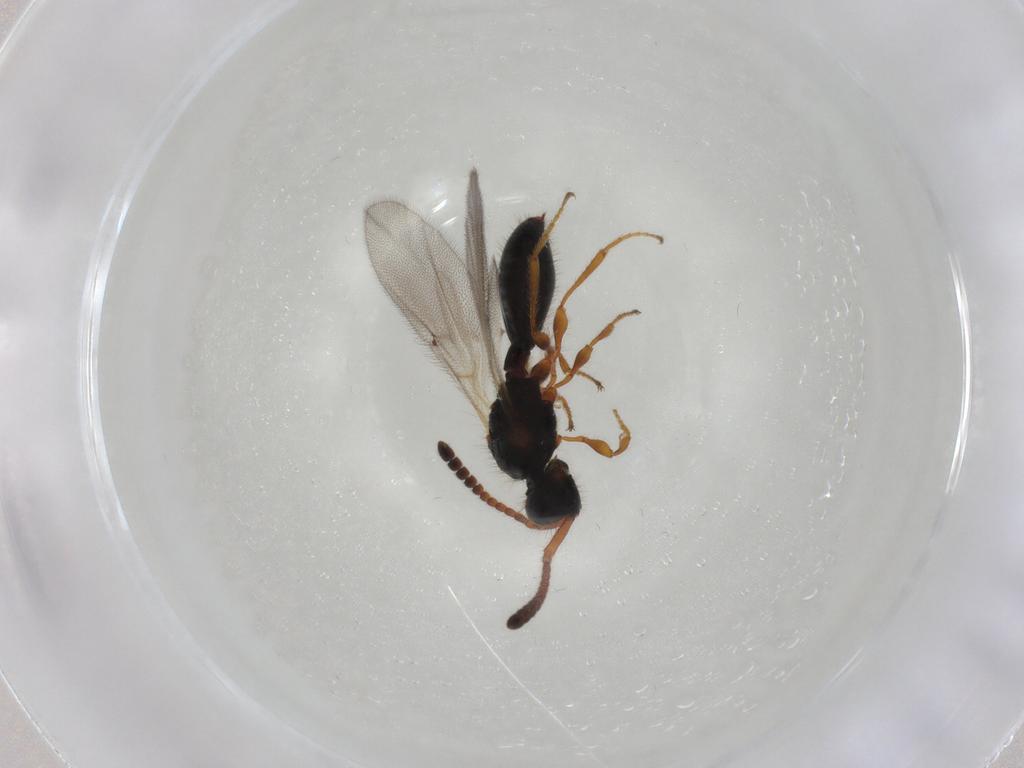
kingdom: Animalia
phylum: Arthropoda
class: Insecta
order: Hymenoptera
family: Diapriidae
